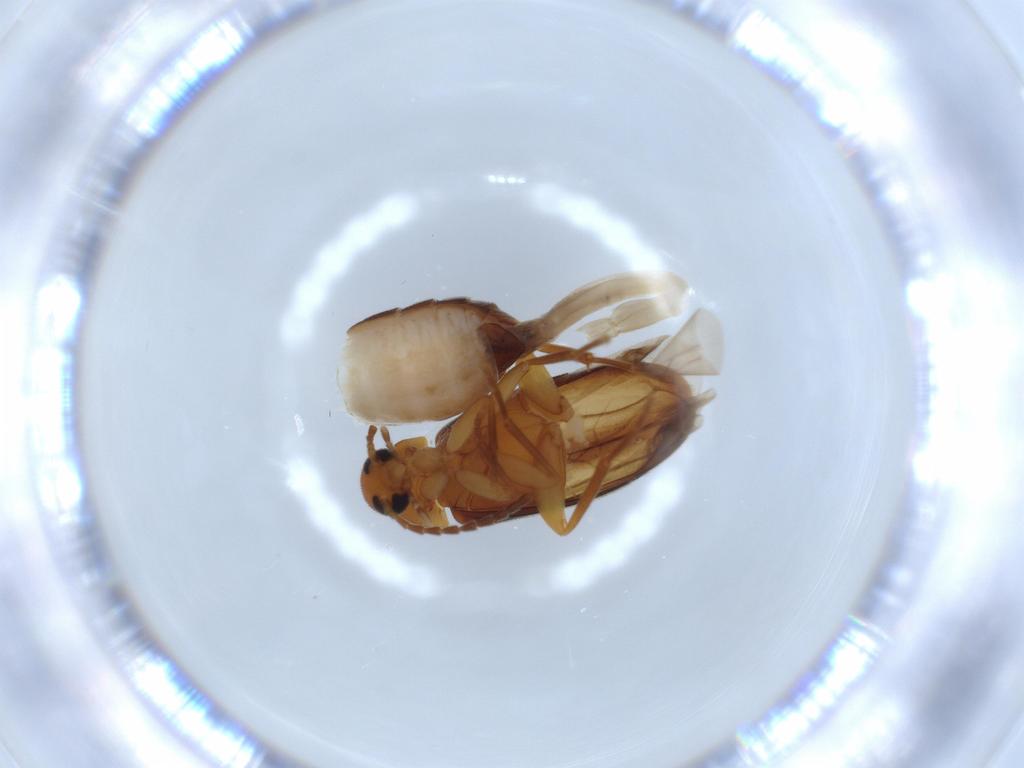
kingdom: Animalia
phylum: Arthropoda
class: Insecta
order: Coleoptera
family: Scraptiidae
